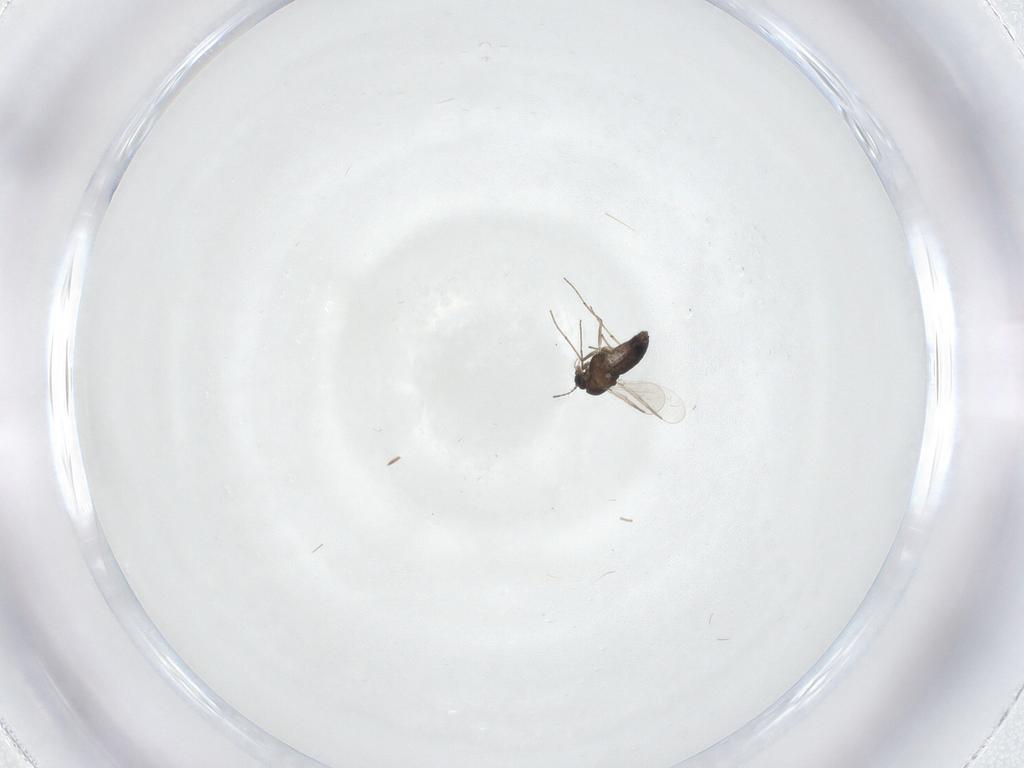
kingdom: Animalia
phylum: Arthropoda
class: Insecta
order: Diptera
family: Chironomidae
